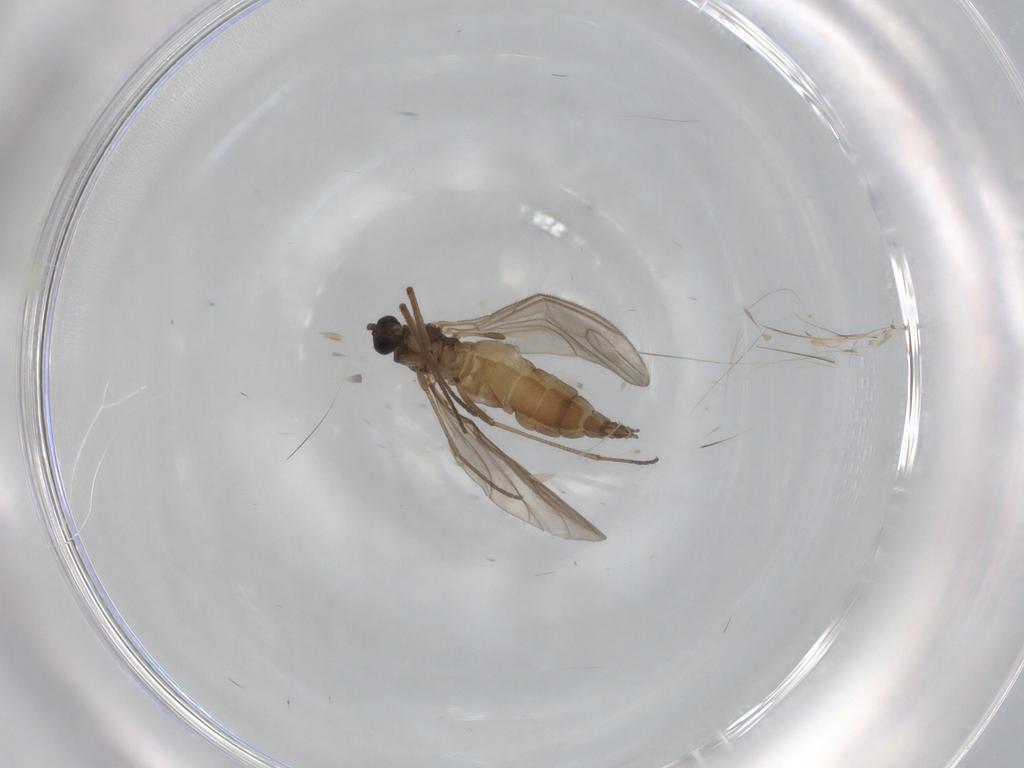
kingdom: Animalia
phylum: Arthropoda
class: Insecta
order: Diptera
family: Sciaridae
